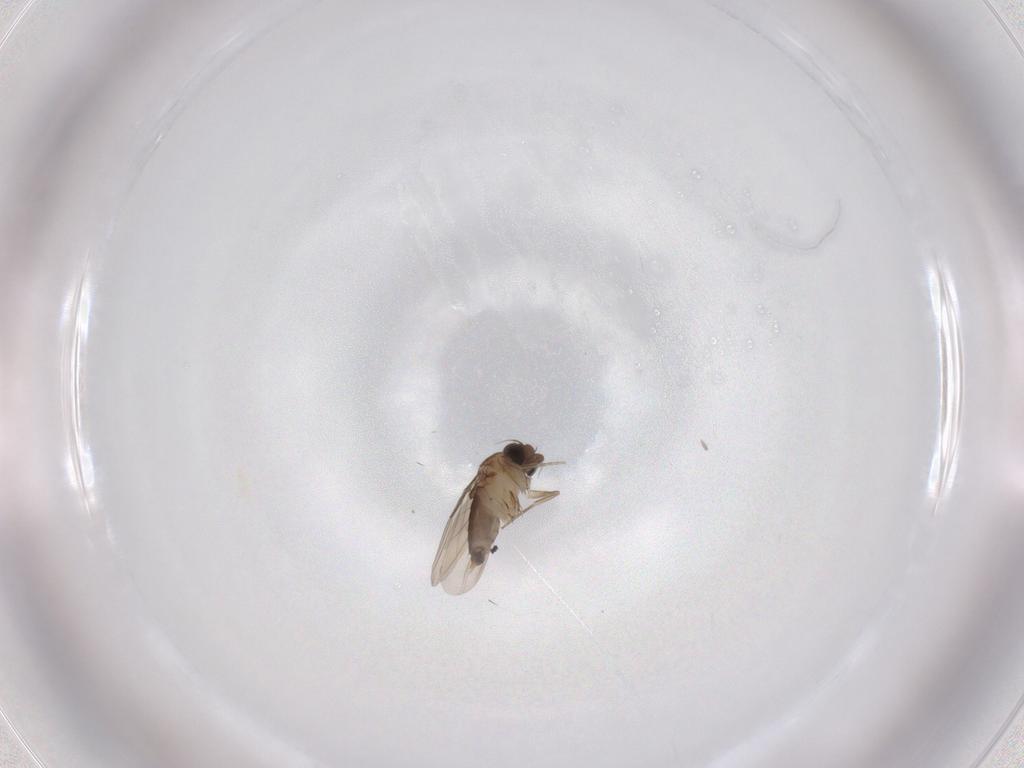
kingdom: Animalia
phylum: Arthropoda
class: Insecta
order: Diptera
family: Phoridae
